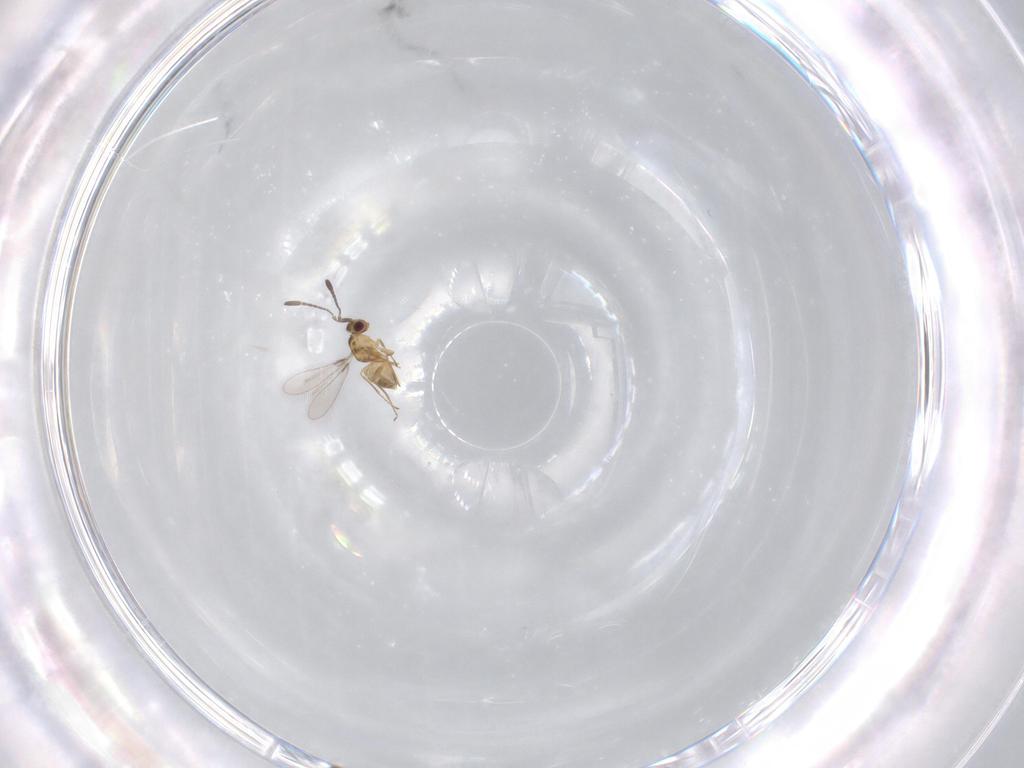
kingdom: Animalia
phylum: Arthropoda
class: Insecta
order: Hymenoptera
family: Mymaridae
